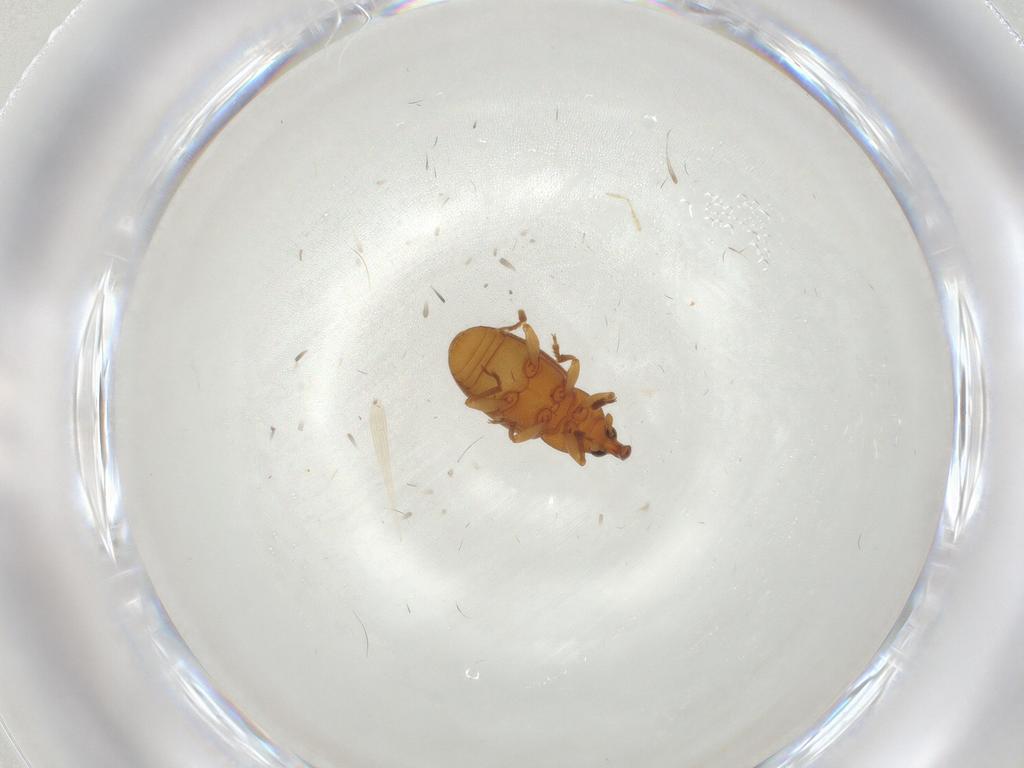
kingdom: Animalia
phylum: Arthropoda
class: Insecta
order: Coleoptera
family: Curculionidae
